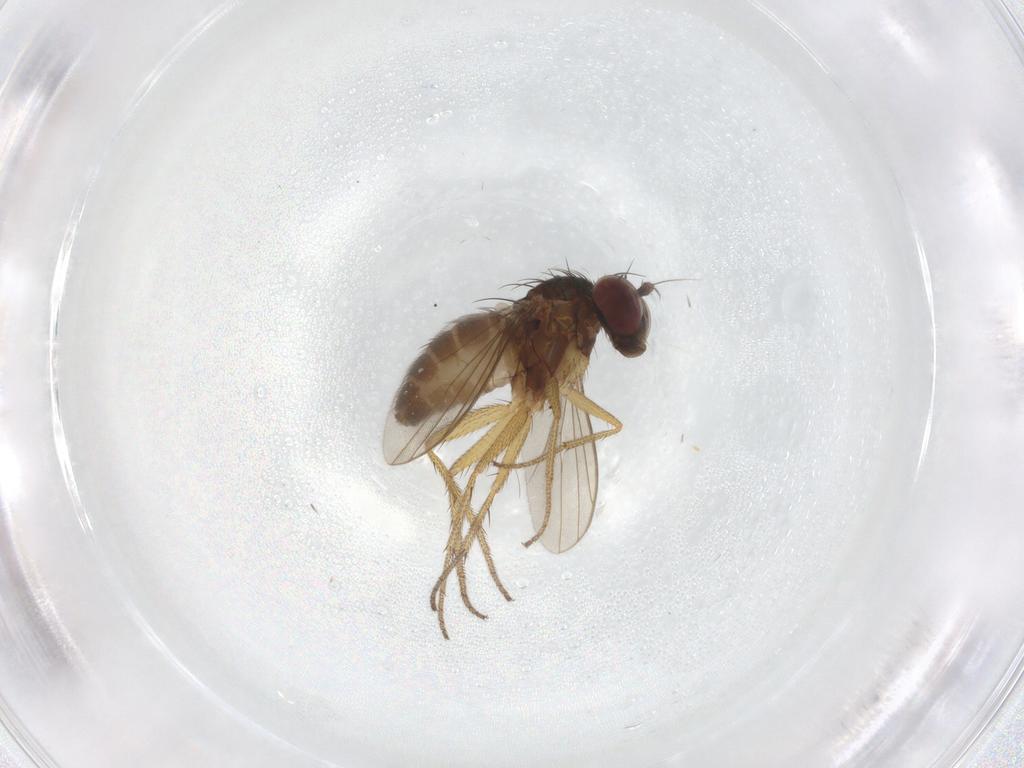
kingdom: Animalia
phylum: Arthropoda
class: Insecta
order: Diptera
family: Dolichopodidae
